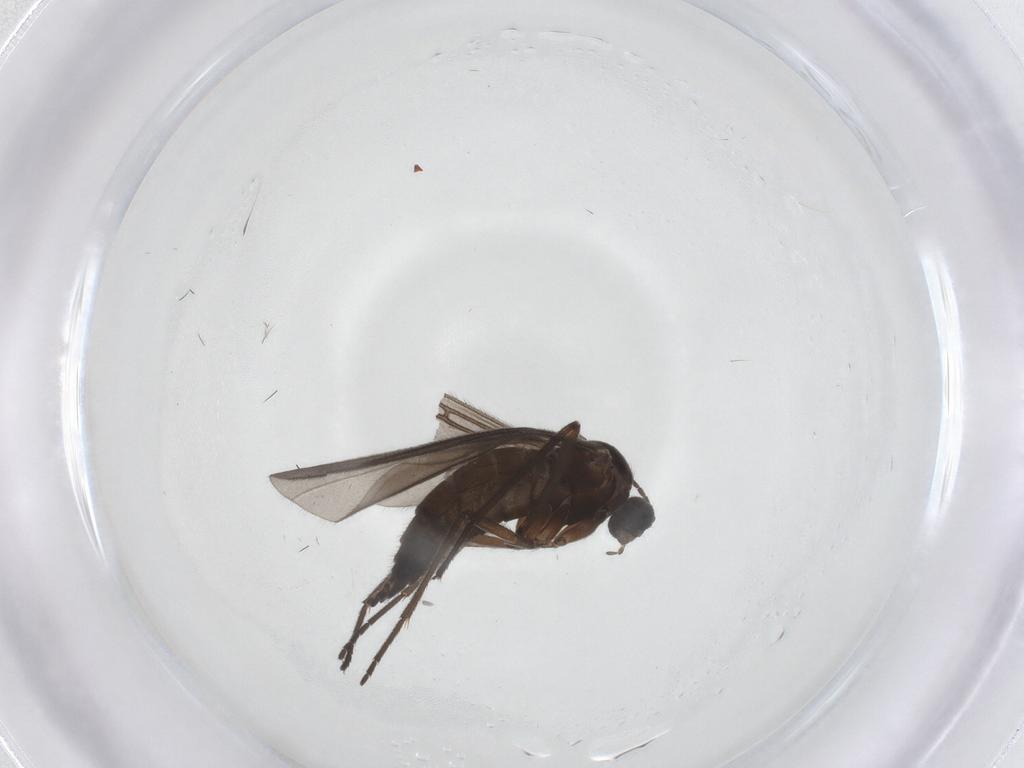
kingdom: Animalia
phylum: Arthropoda
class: Insecta
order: Diptera
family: Sciaridae
